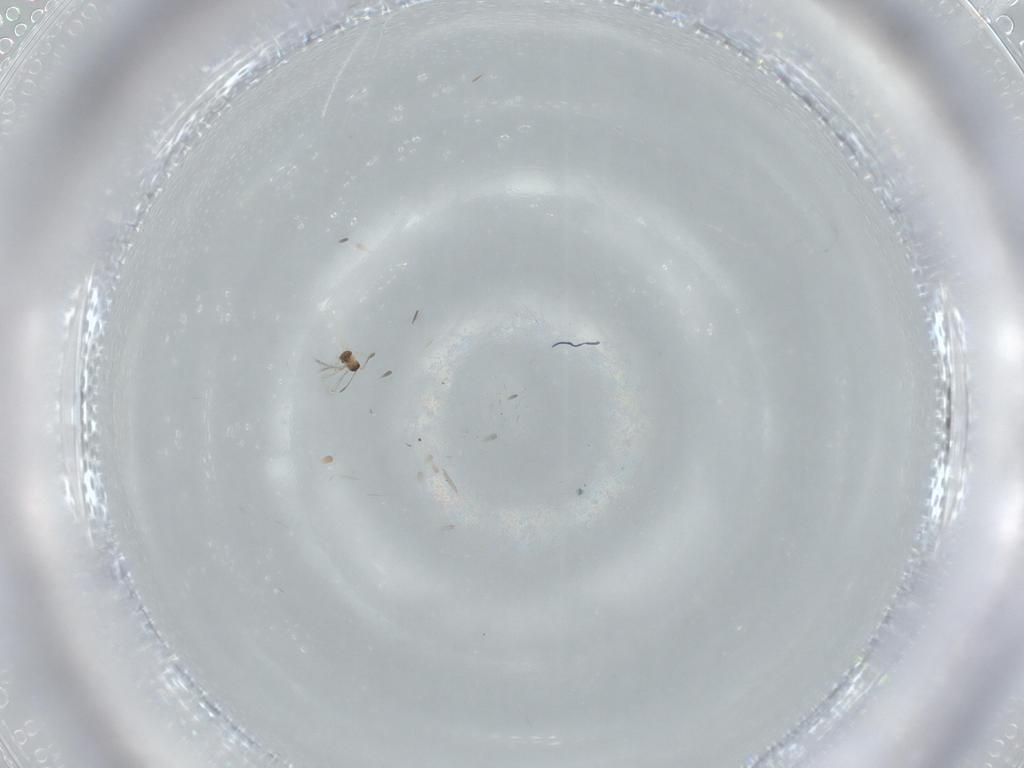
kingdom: Animalia
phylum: Arthropoda
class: Insecta
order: Hymenoptera
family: Mymaridae
